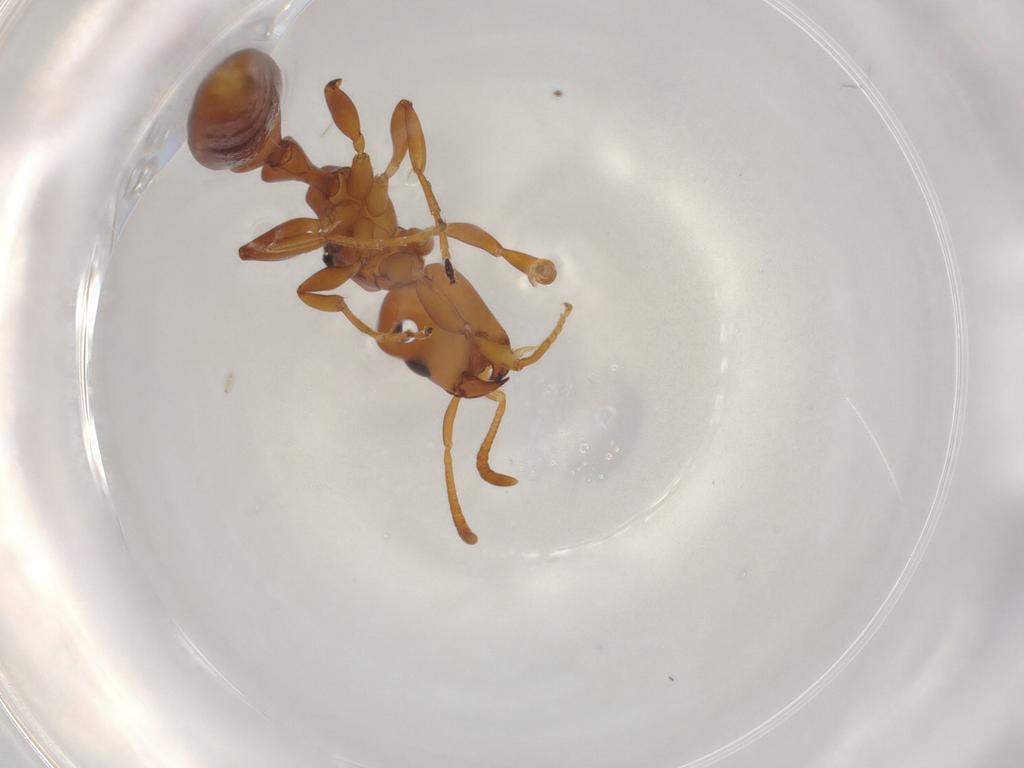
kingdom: Animalia
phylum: Arthropoda
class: Insecta
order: Hymenoptera
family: Formicidae
